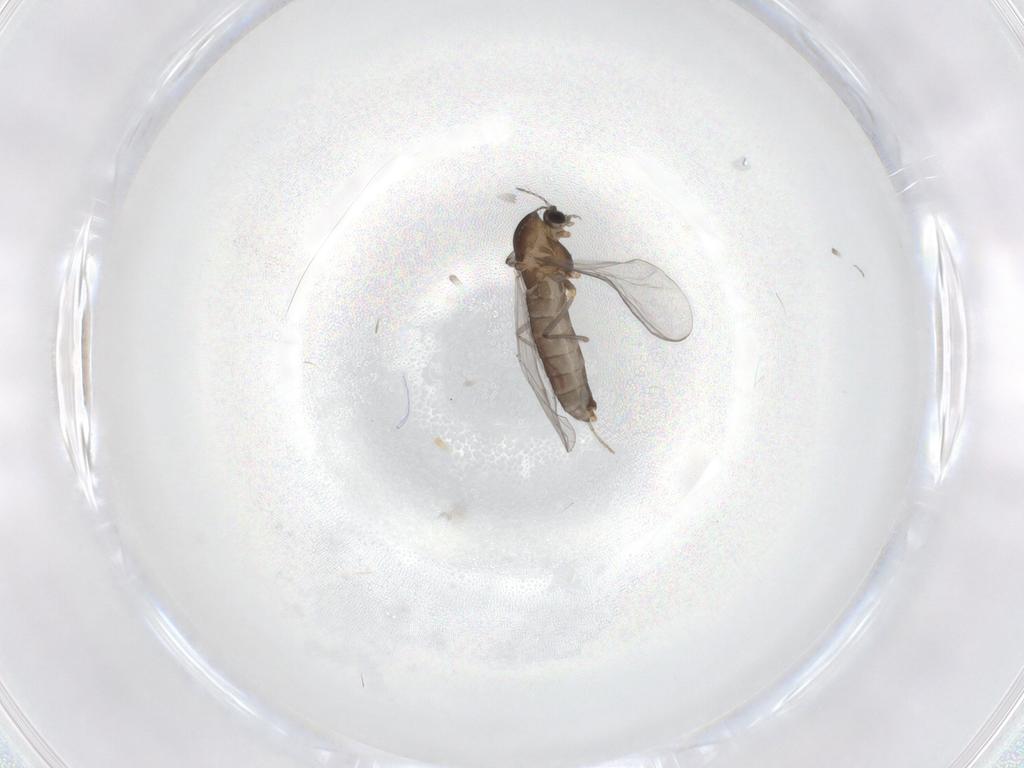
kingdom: Animalia
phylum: Arthropoda
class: Insecta
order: Diptera
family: Chironomidae
